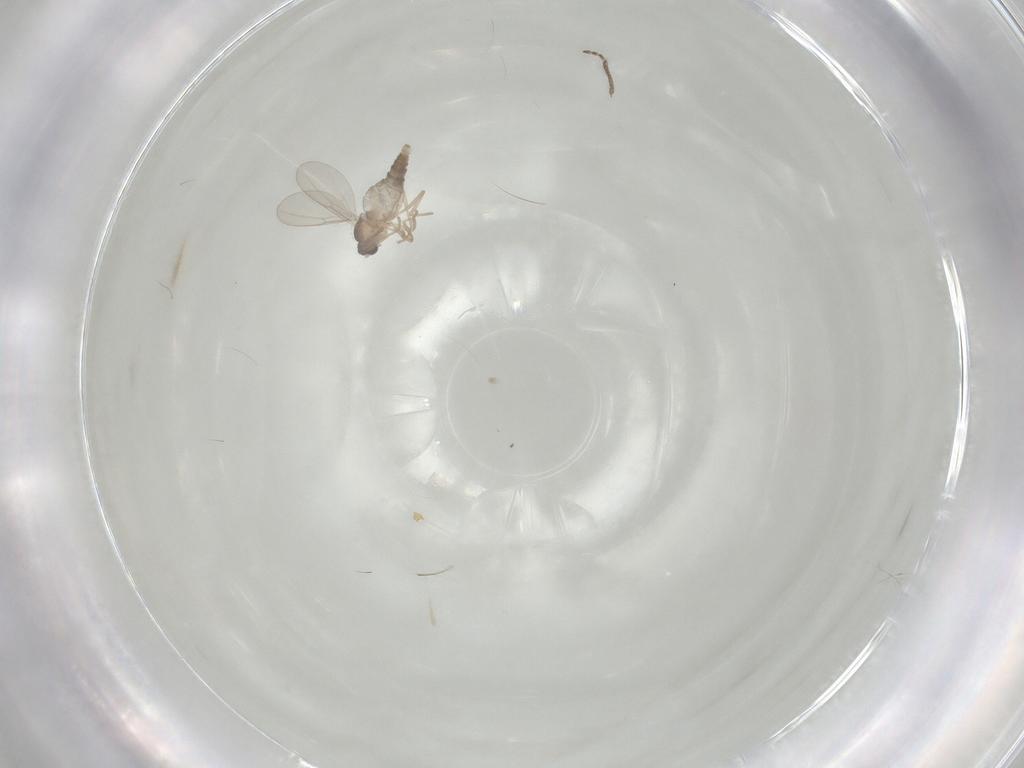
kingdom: Animalia
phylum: Arthropoda
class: Insecta
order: Diptera
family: Cecidomyiidae
